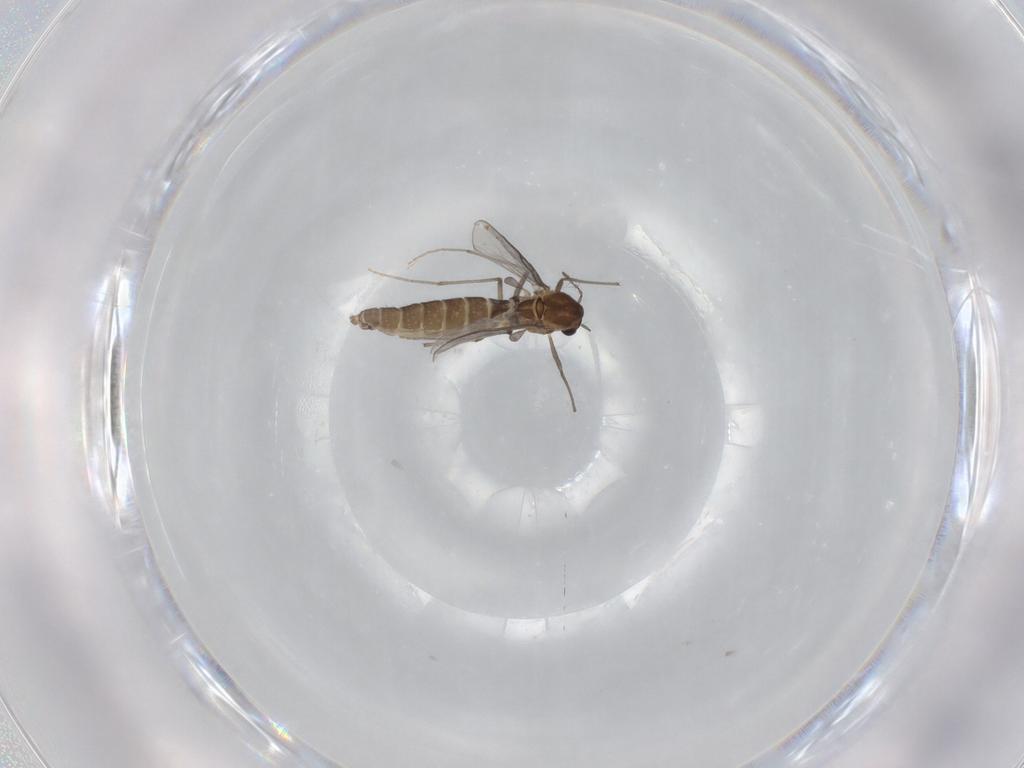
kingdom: Animalia
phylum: Arthropoda
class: Insecta
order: Diptera
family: Chironomidae
